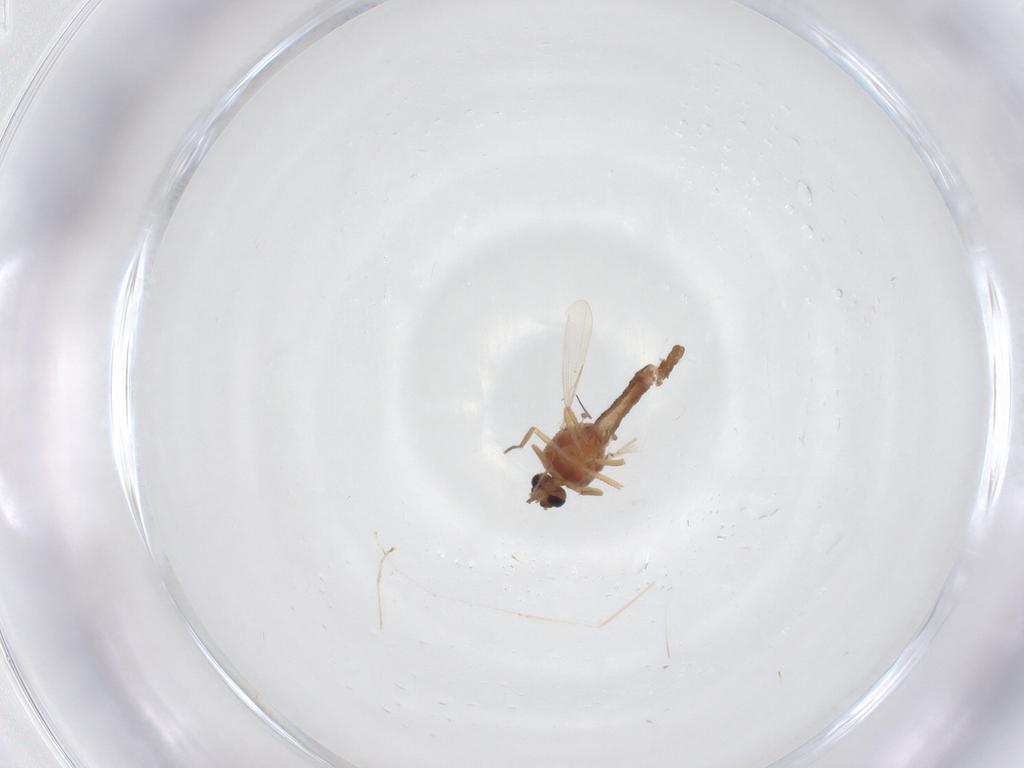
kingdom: Animalia
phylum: Arthropoda
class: Insecta
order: Diptera
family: Ceratopogonidae
